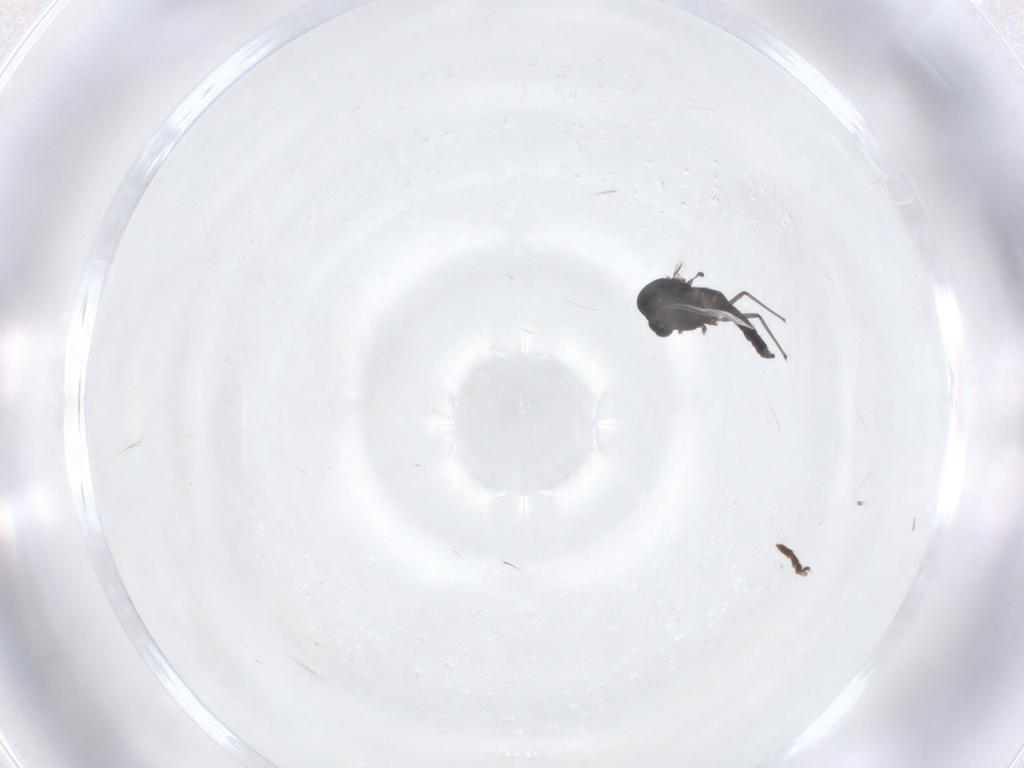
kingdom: Animalia
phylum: Arthropoda
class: Insecta
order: Diptera
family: Chironomidae
